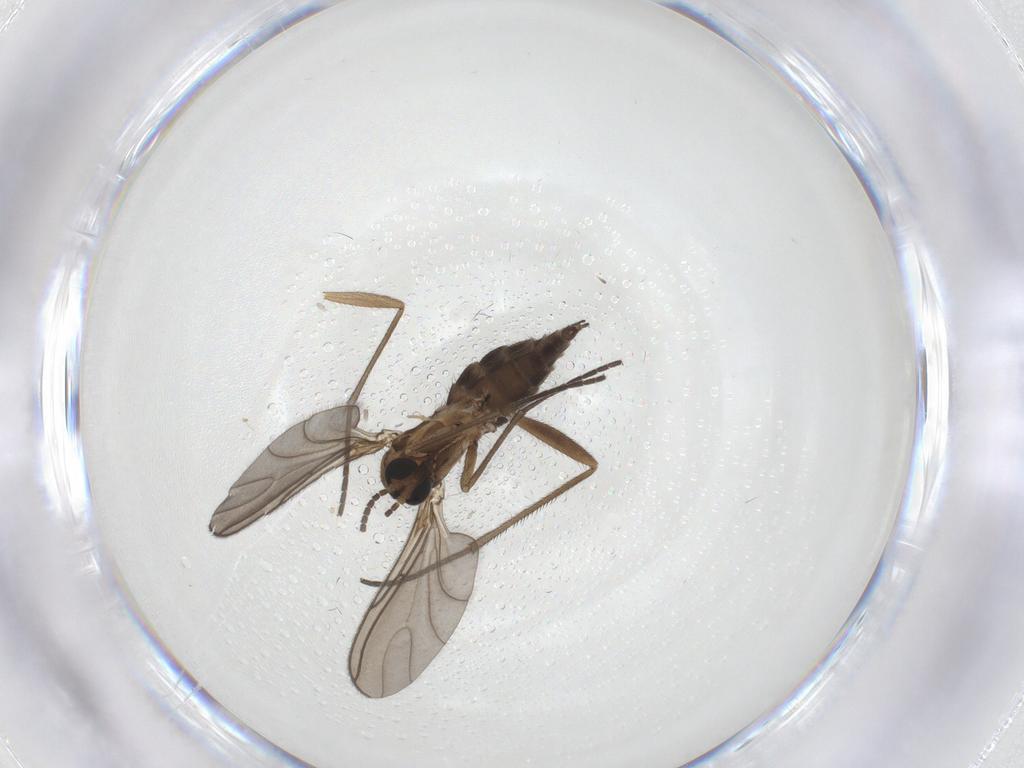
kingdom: Animalia
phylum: Arthropoda
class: Insecta
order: Diptera
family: Sciaridae
